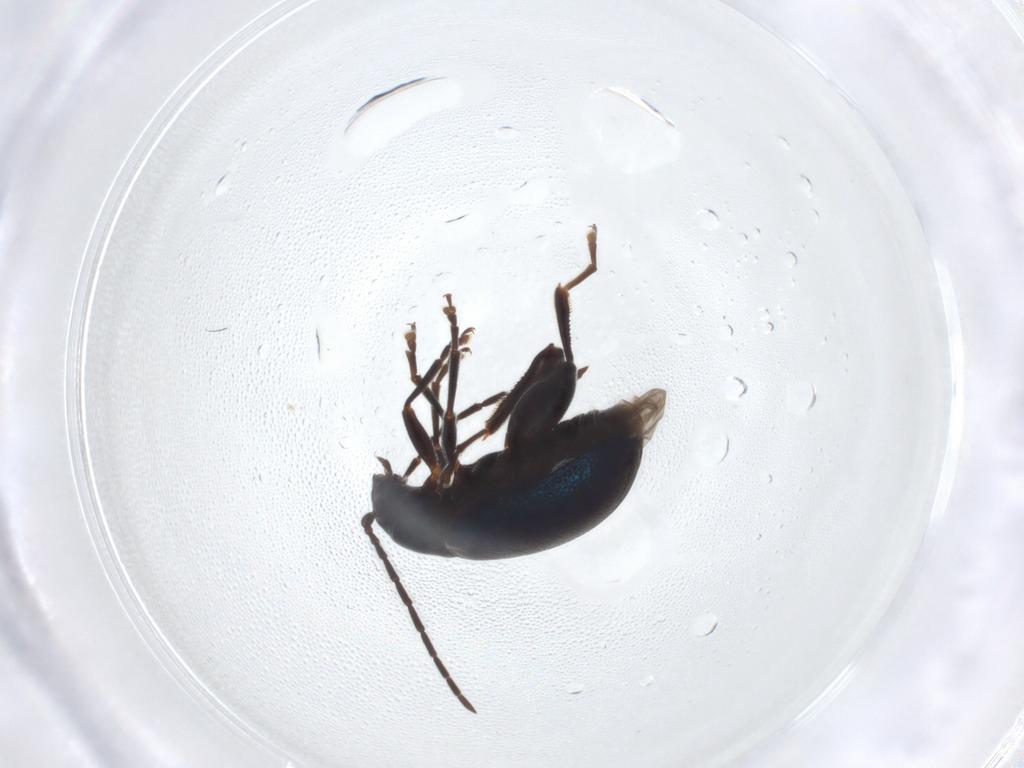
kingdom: Animalia
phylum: Arthropoda
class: Insecta
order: Coleoptera
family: Chrysomelidae
